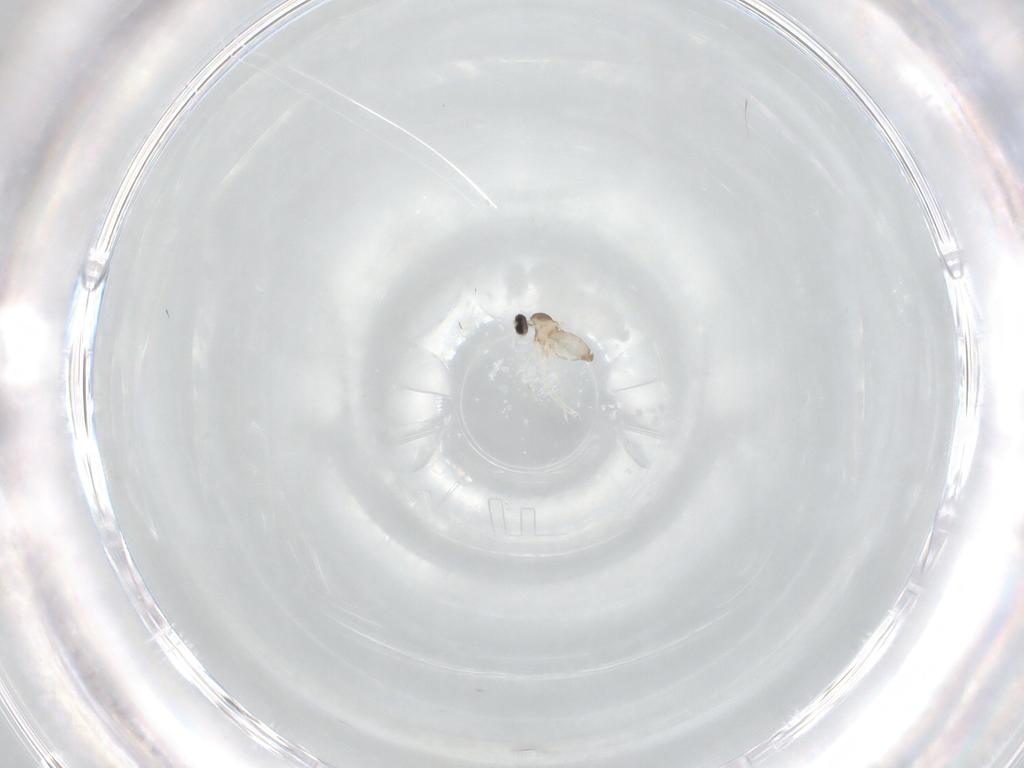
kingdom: Animalia
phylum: Arthropoda
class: Insecta
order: Diptera
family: Cecidomyiidae
